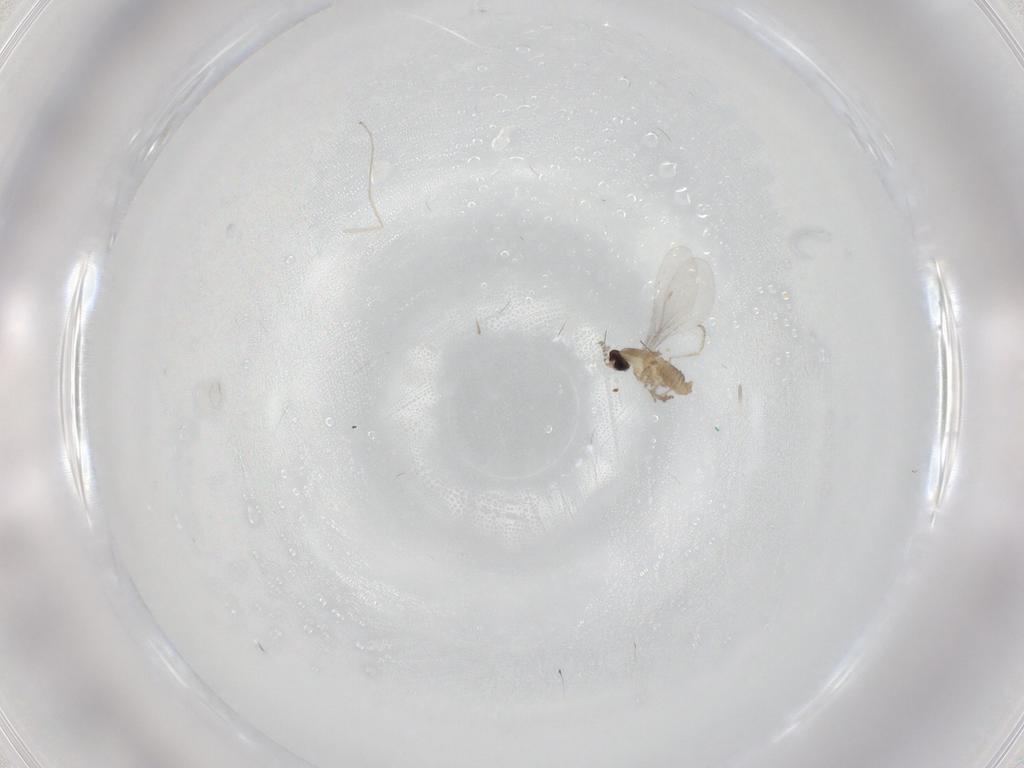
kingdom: Animalia
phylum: Arthropoda
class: Insecta
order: Diptera
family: Cecidomyiidae
